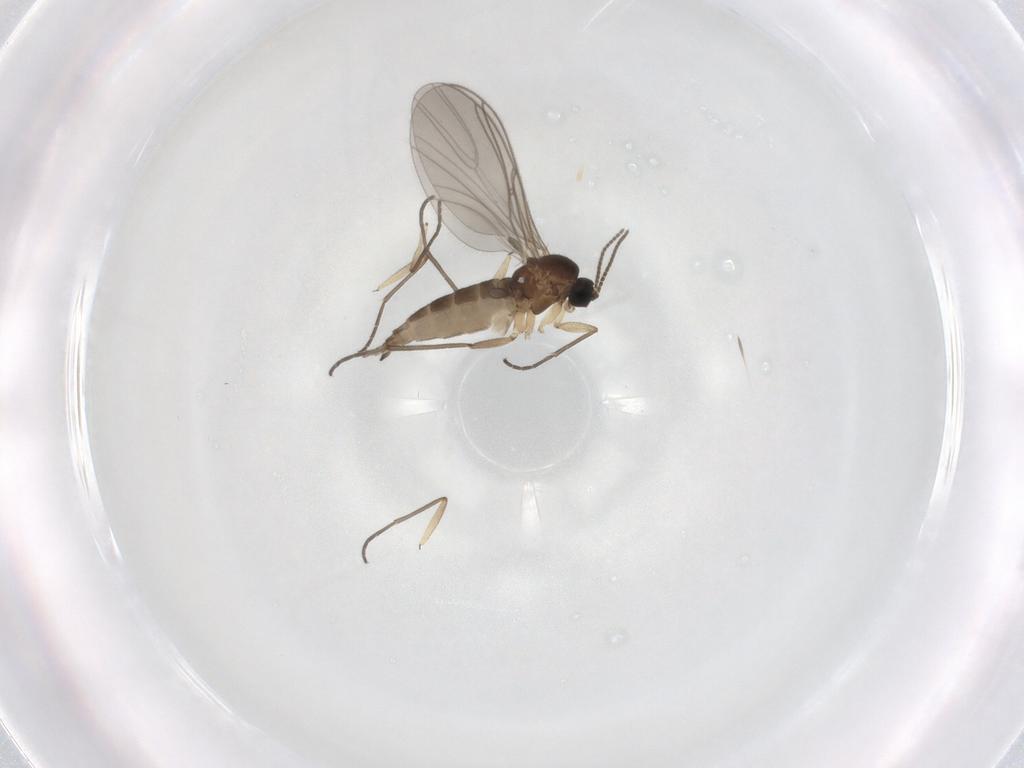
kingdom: Animalia
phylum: Arthropoda
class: Insecta
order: Diptera
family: Sciaridae
